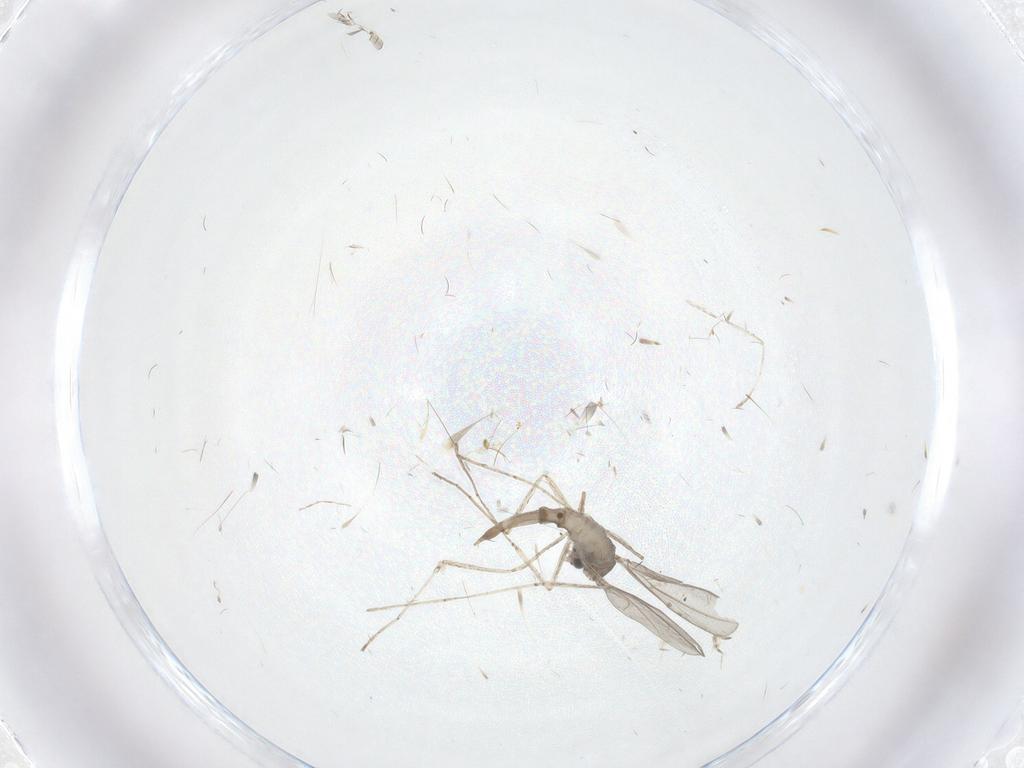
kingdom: Animalia
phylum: Arthropoda
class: Insecta
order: Diptera
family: Cecidomyiidae
